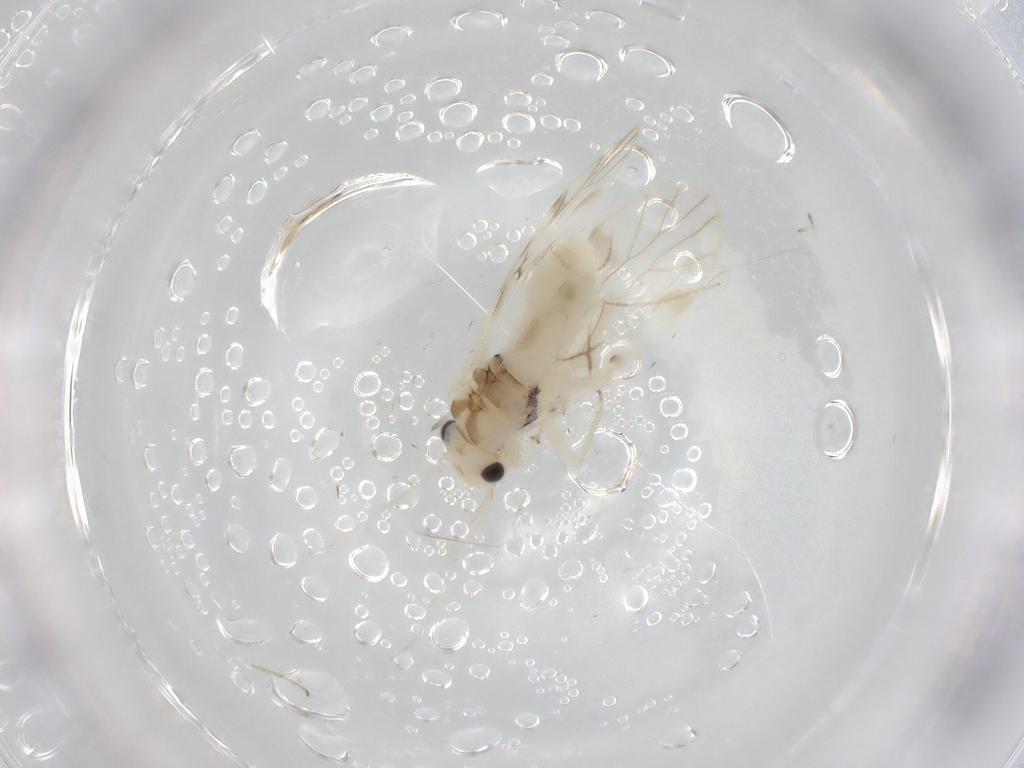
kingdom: Animalia
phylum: Arthropoda
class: Insecta
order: Psocodea
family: Caeciliusidae
